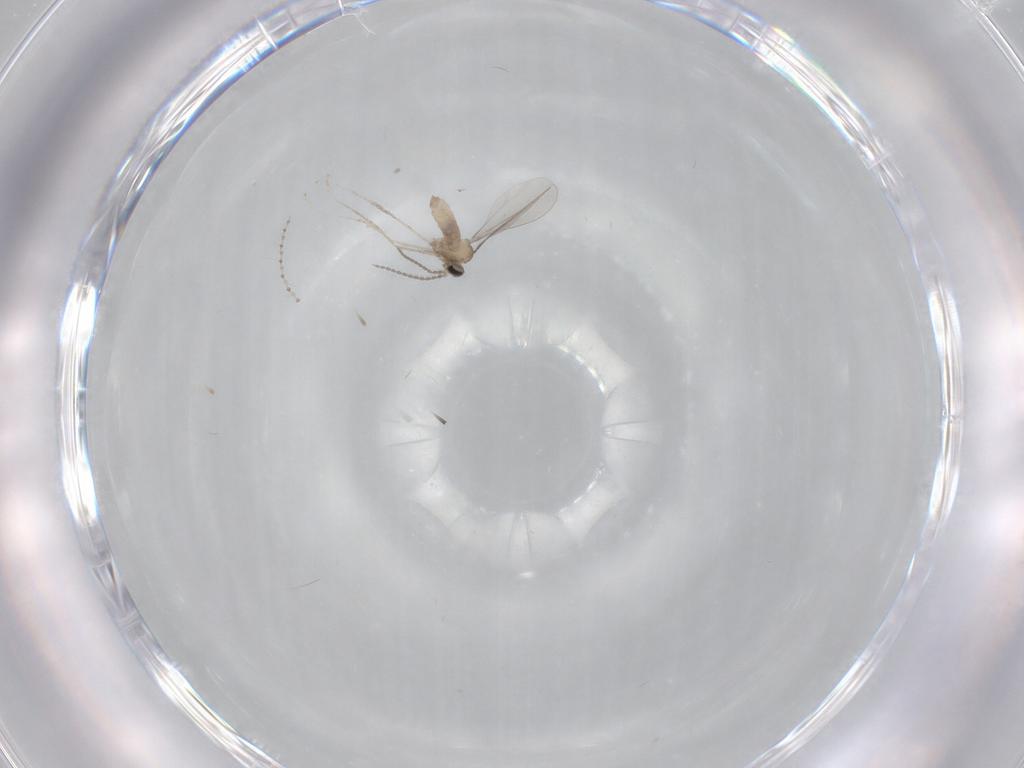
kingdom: Animalia
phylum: Arthropoda
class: Insecta
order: Diptera
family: Cecidomyiidae
